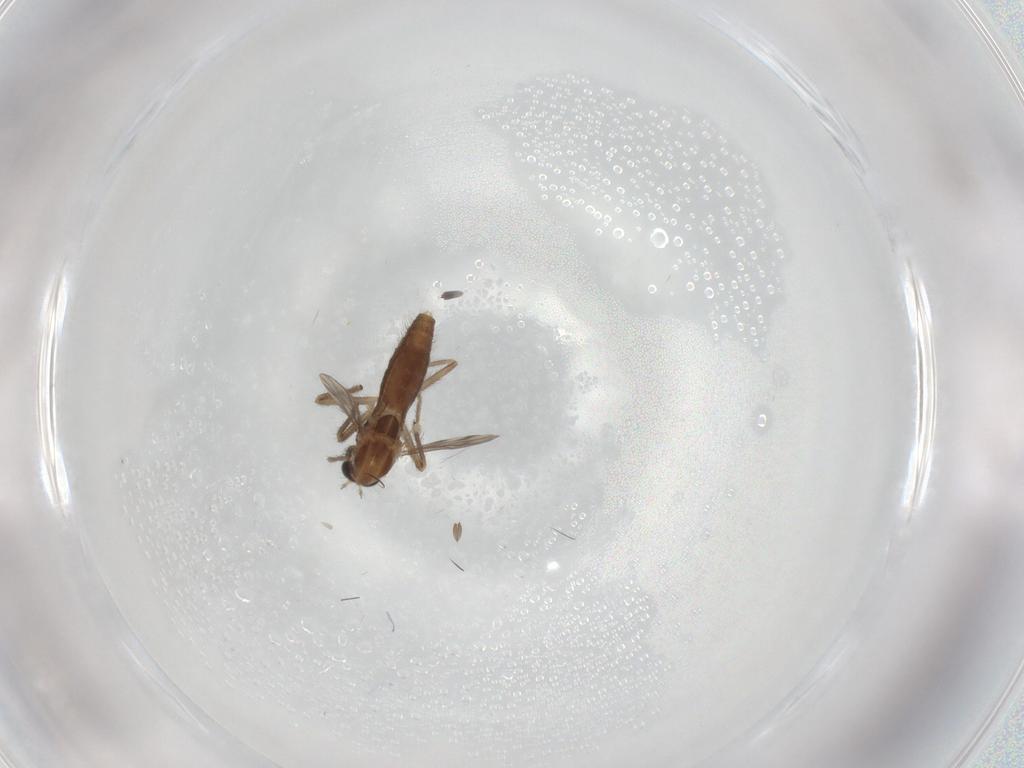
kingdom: Animalia
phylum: Arthropoda
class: Insecta
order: Diptera
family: Chironomidae
